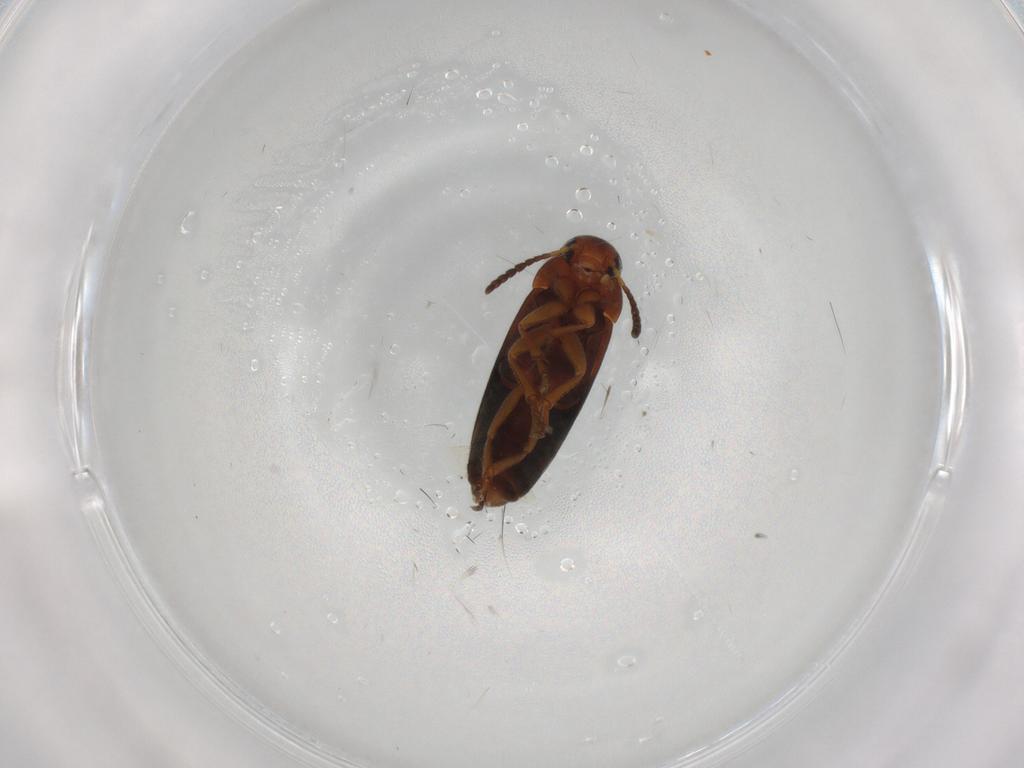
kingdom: Animalia
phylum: Arthropoda
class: Insecta
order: Coleoptera
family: Scraptiidae
